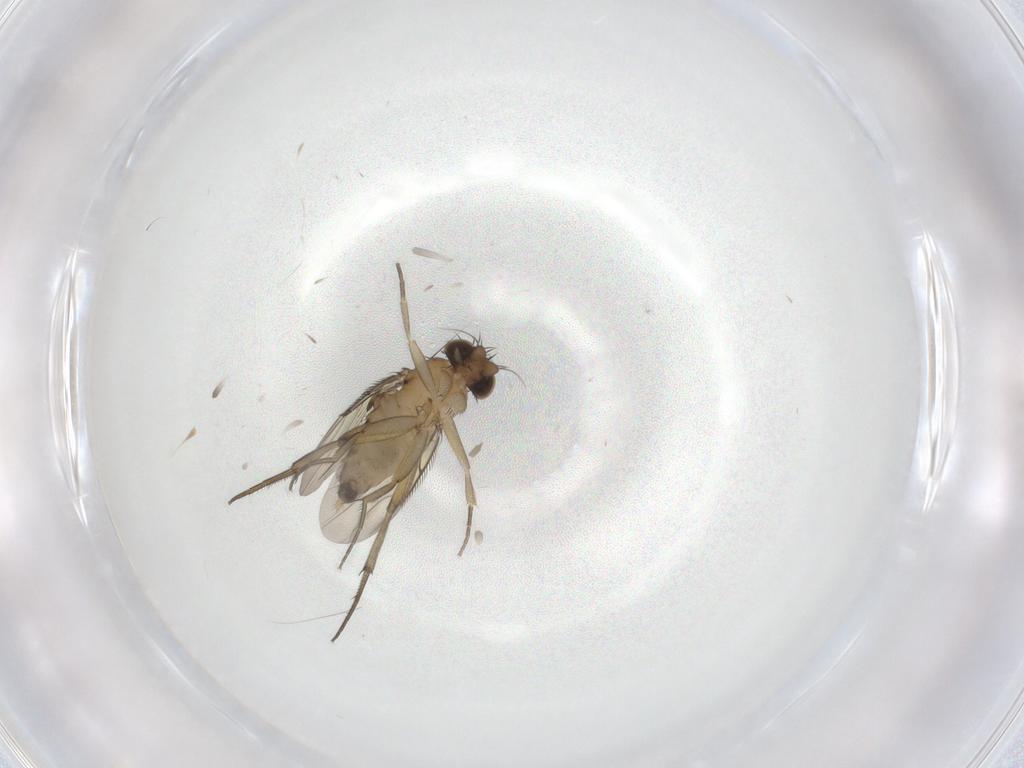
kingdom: Animalia
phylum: Arthropoda
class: Insecta
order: Diptera
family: Phoridae
